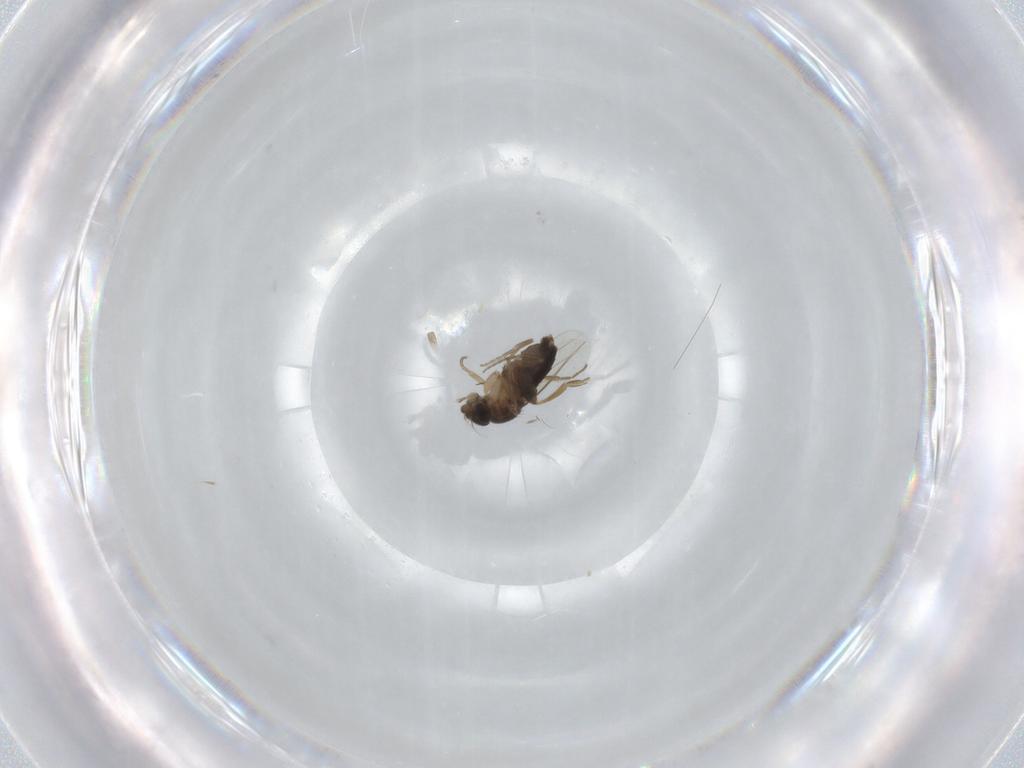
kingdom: Animalia
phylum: Arthropoda
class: Insecta
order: Diptera
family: Phoridae
